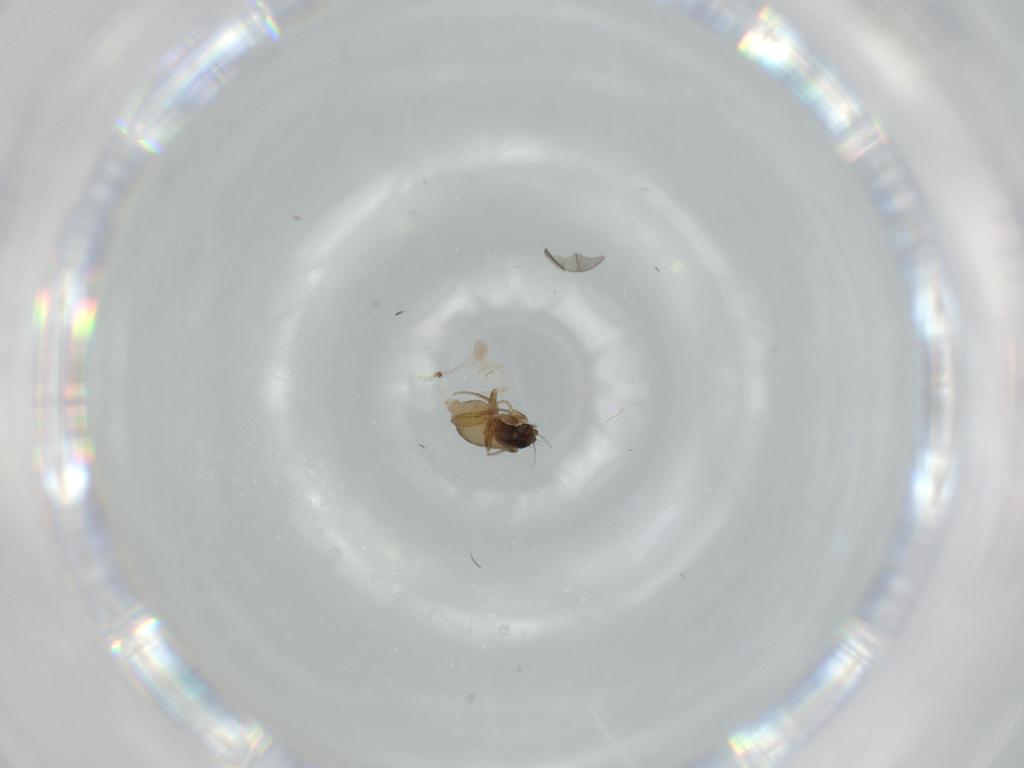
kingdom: Animalia
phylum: Arthropoda
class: Insecta
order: Diptera
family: Phoridae
